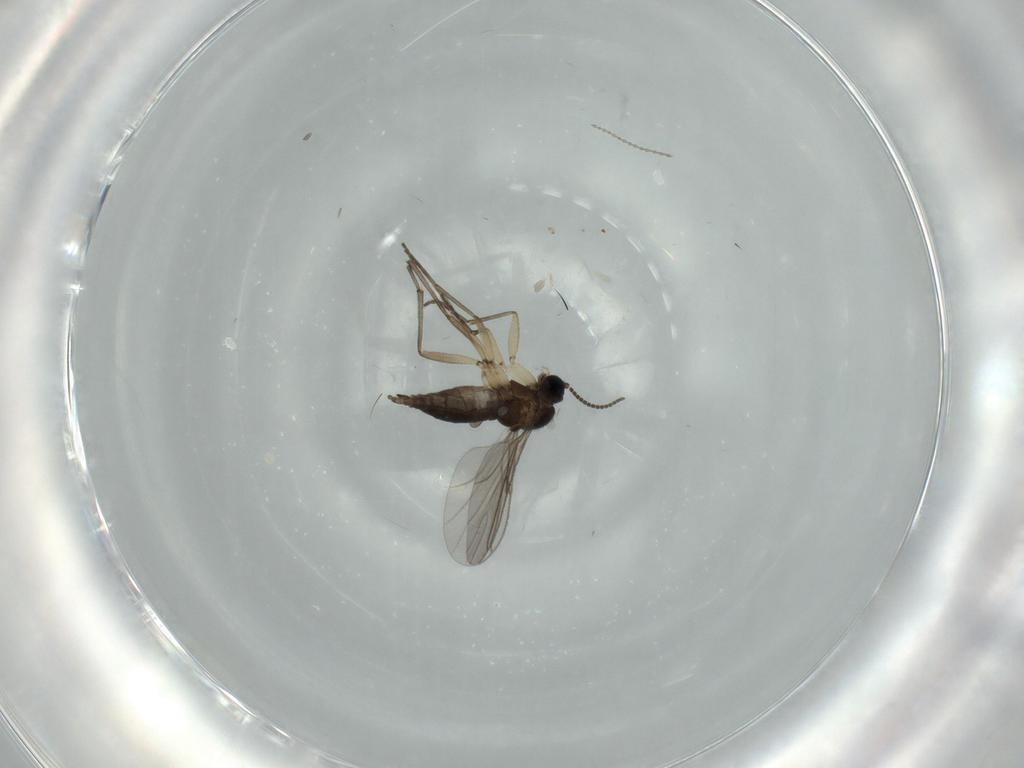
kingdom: Animalia
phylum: Arthropoda
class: Insecta
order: Diptera
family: Sciaridae
